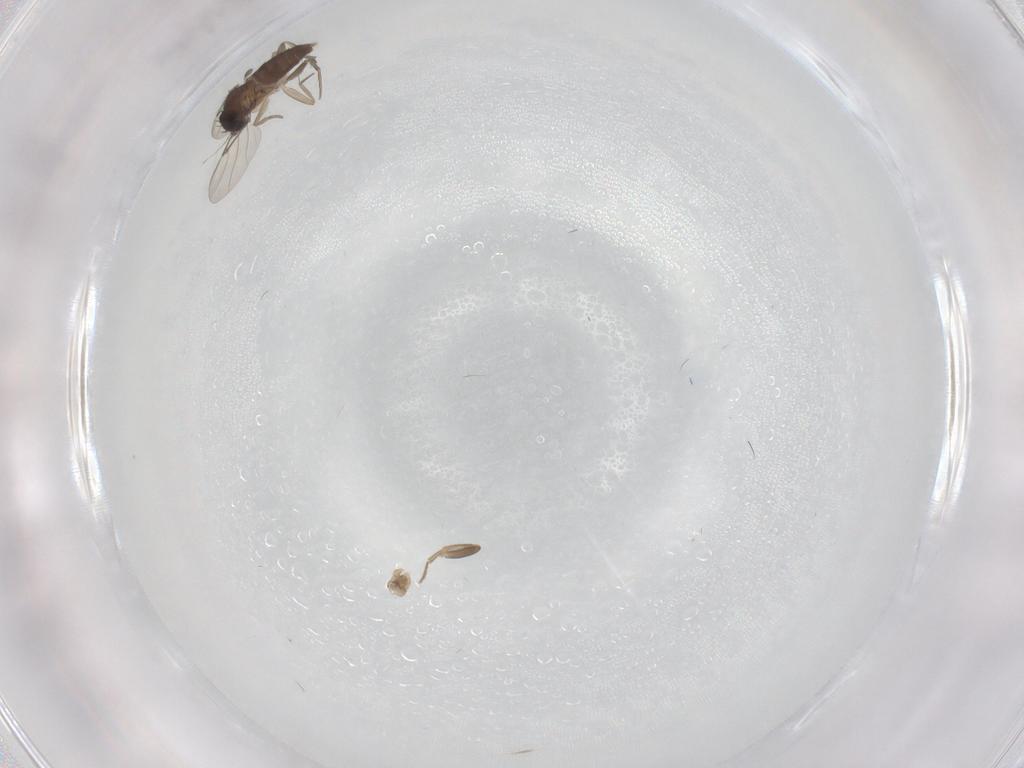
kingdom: Animalia
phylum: Arthropoda
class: Insecta
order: Diptera
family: Phoridae
